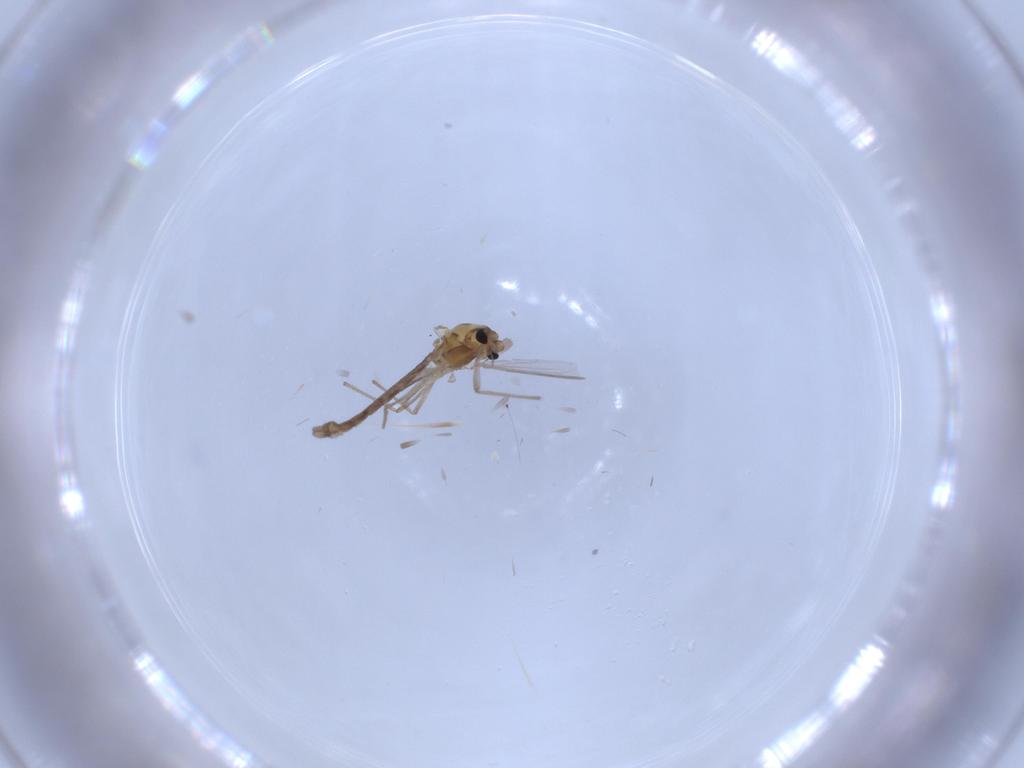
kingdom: Animalia
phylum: Arthropoda
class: Insecta
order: Diptera
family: Chironomidae
